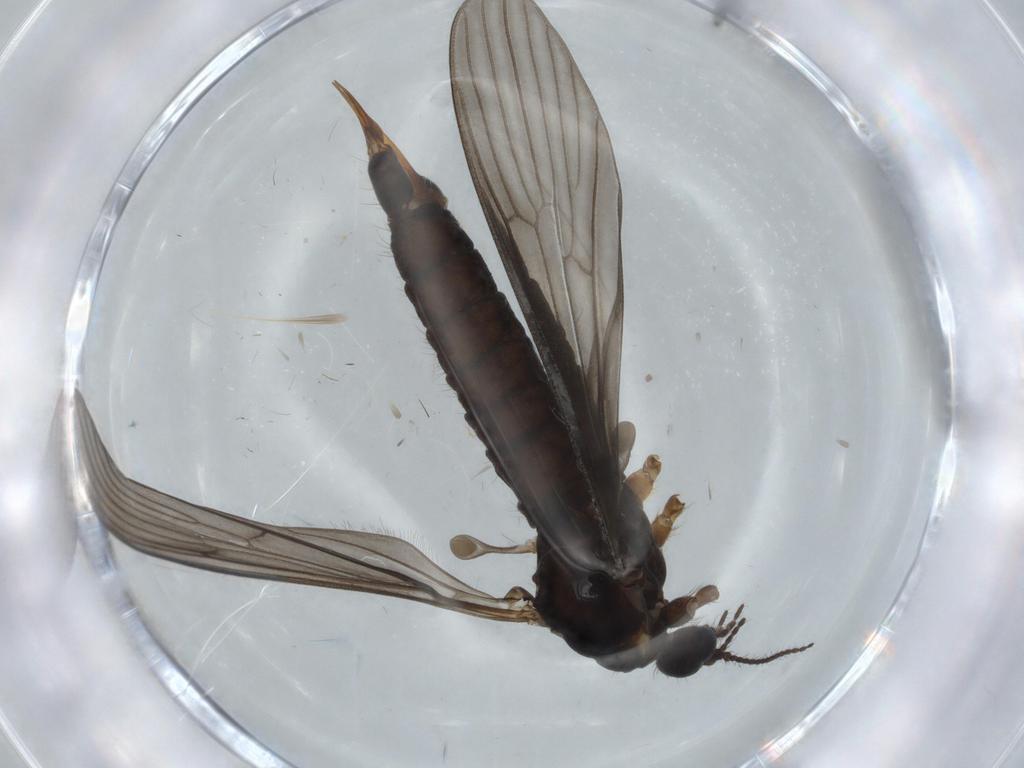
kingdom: Animalia
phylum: Arthropoda
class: Insecta
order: Diptera
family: Limoniidae
